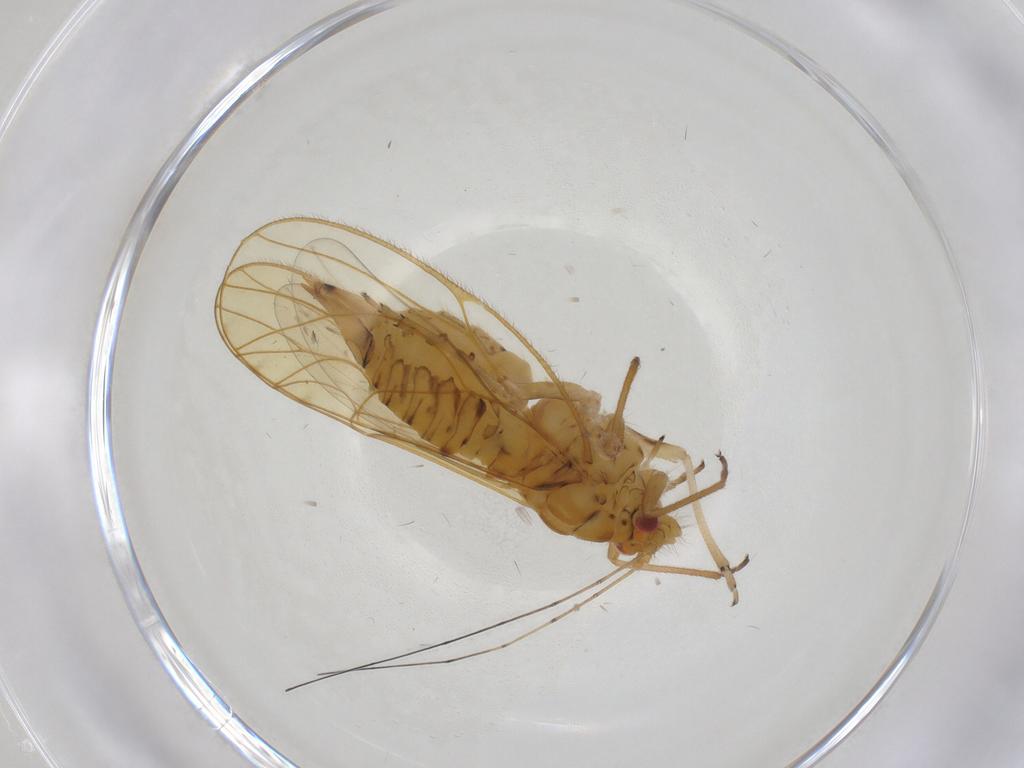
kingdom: Animalia
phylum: Arthropoda
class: Insecta
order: Hemiptera
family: Psyllidae
